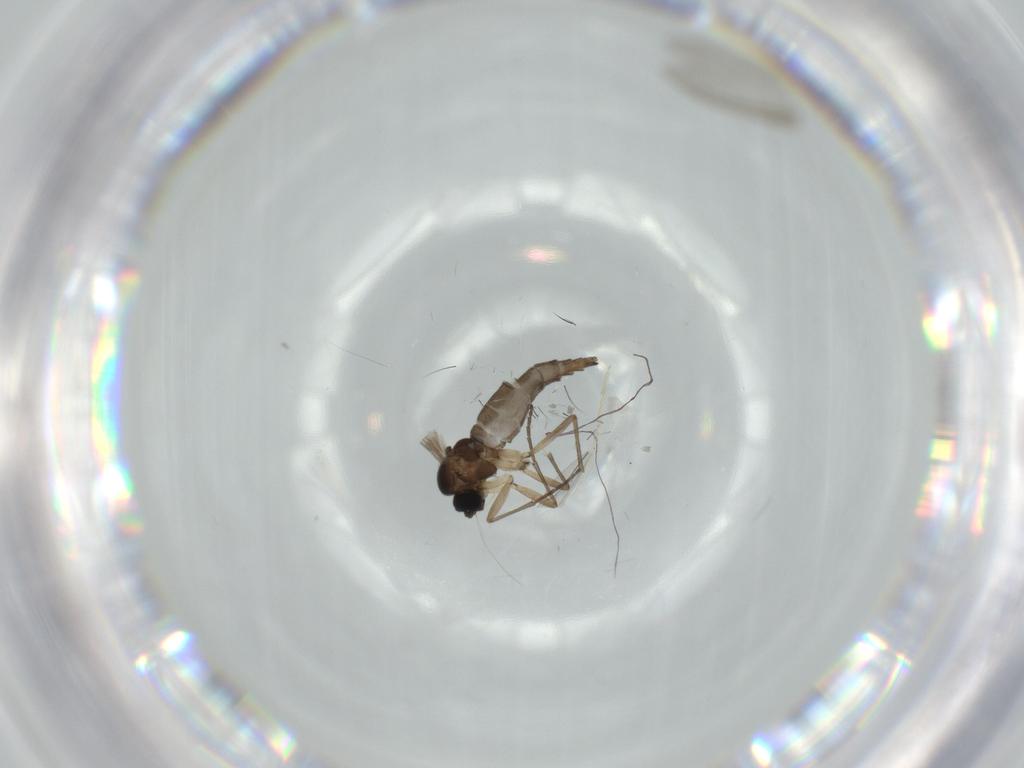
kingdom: Animalia
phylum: Arthropoda
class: Insecta
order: Diptera
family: Sciaridae
